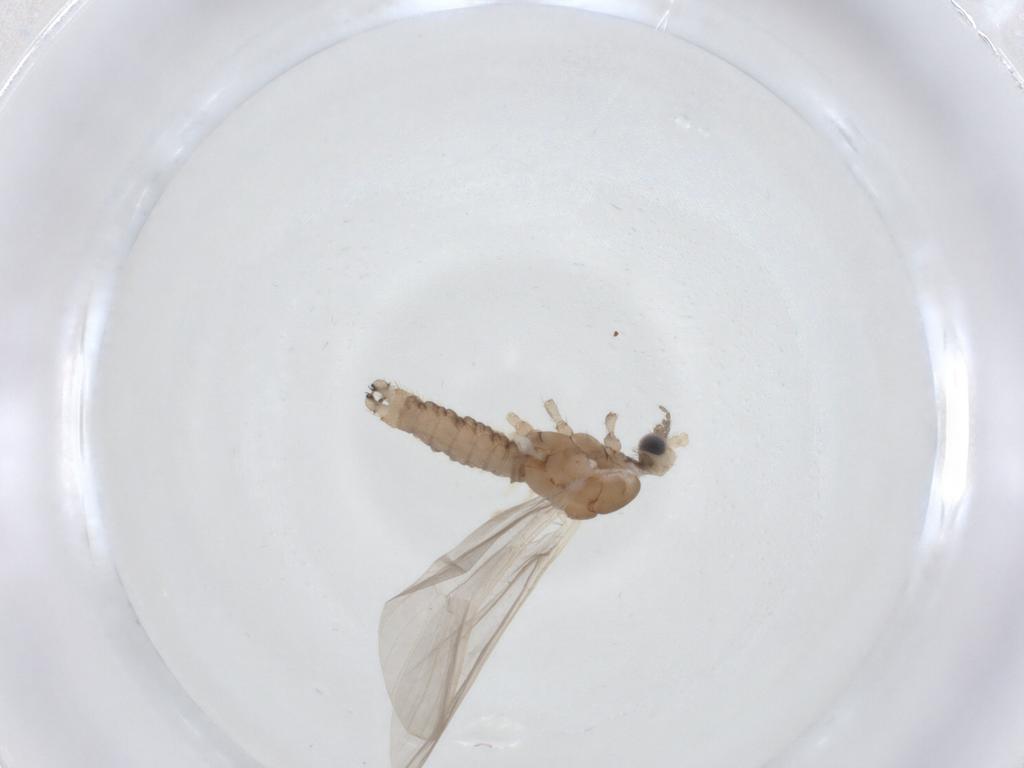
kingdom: Animalia
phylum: Arthropoda
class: Insecta
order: Diptera
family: Limoniidae
